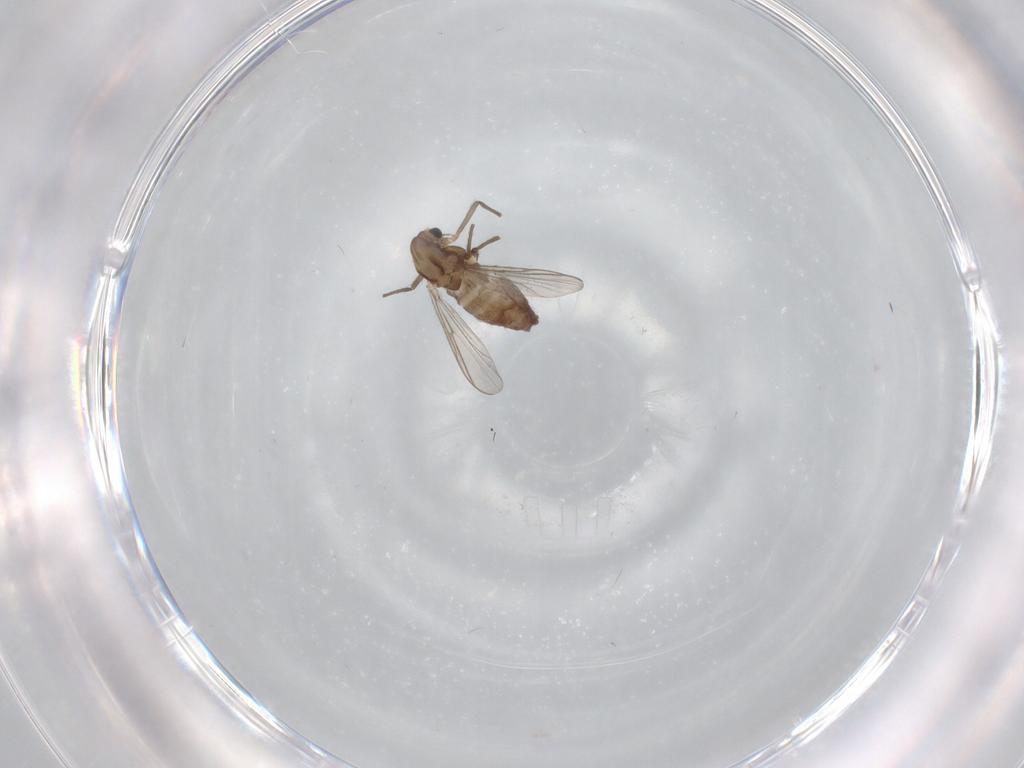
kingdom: Animalia
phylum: Arthropoda
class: Insecta
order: Diptera
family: Chironomidae
